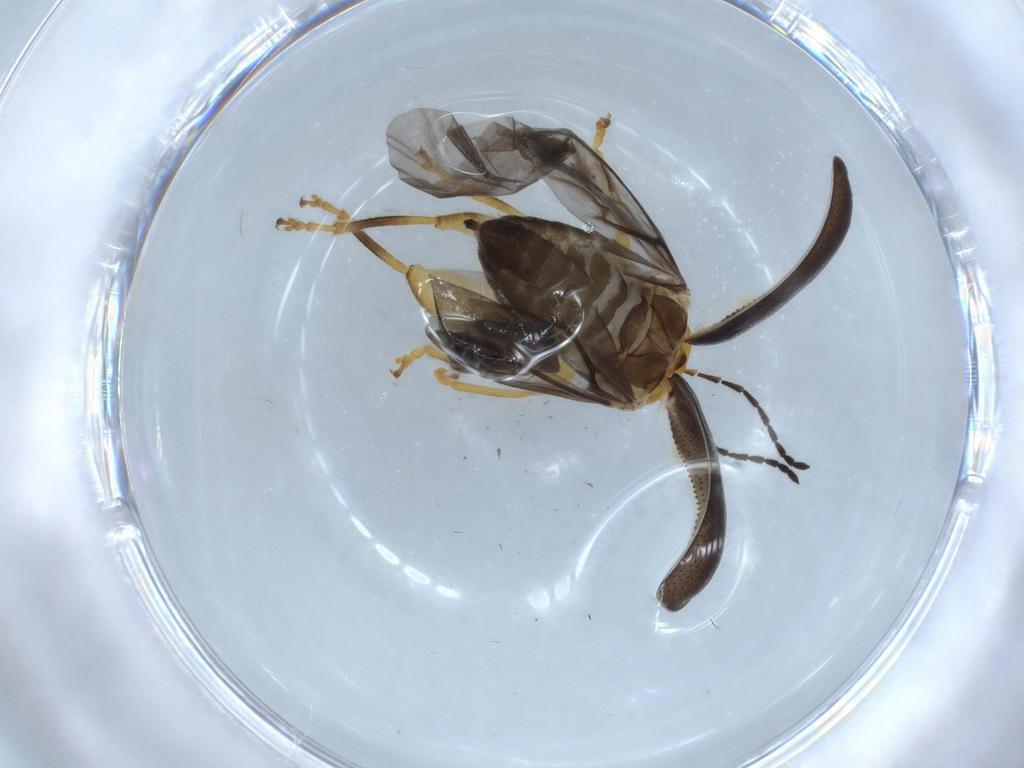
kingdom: Animalia
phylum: Arthropoda
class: Insecta
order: Coleoptera
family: Chrysomelidae
